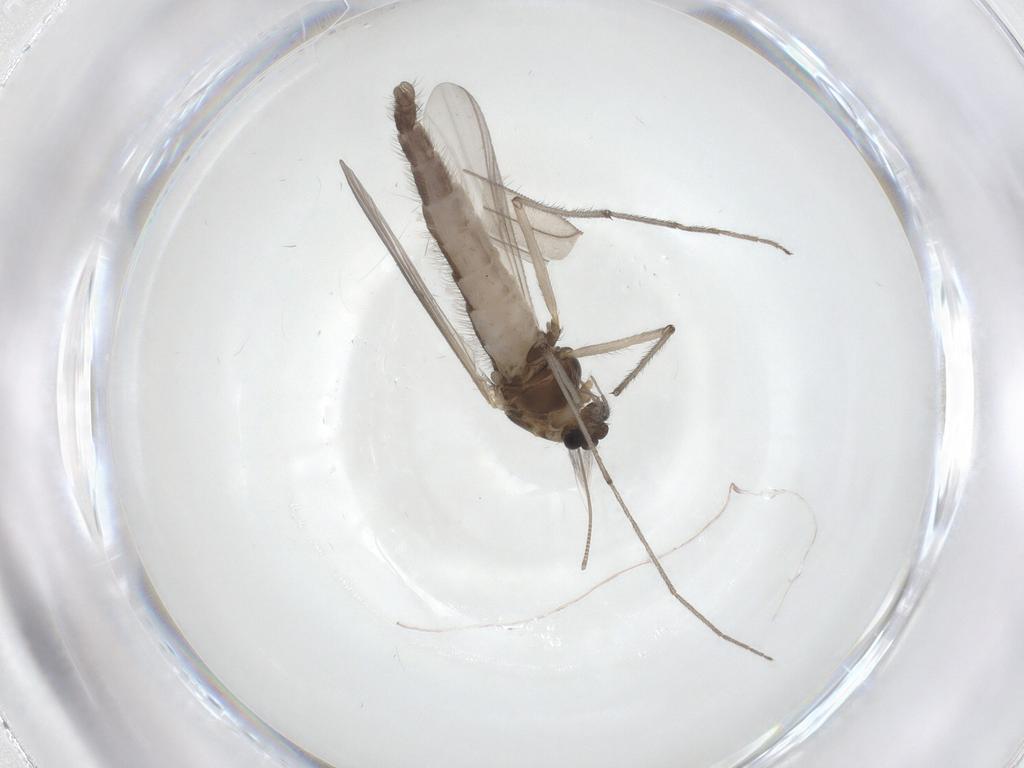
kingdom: Animalia
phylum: Arthropoda
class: Insecta
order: Diptera
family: Chironomidae
